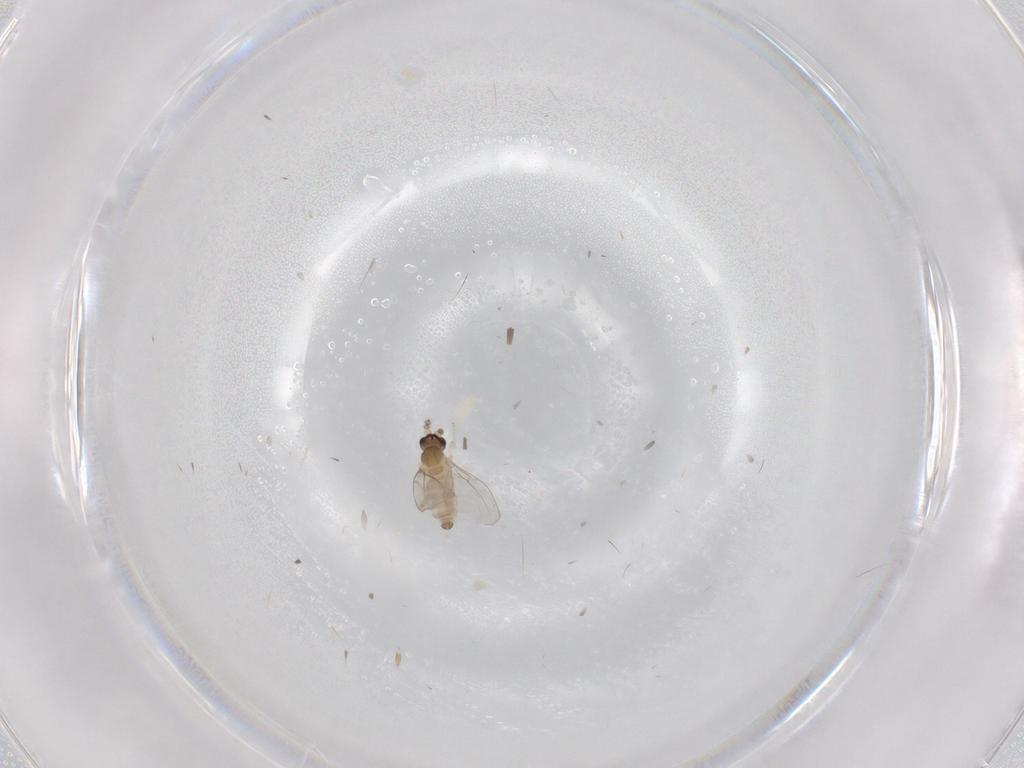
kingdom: Animalia
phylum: Arthropoda
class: Insecta
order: Diptera
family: Cecidomyiidae
